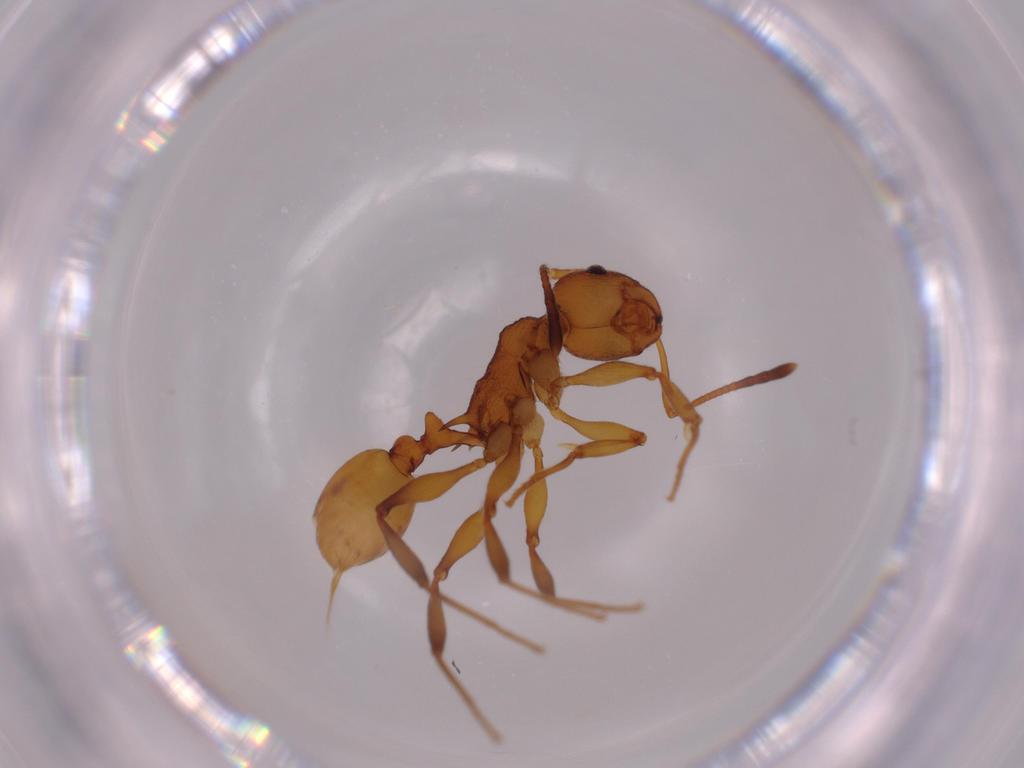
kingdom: Animalia
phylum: Arthropoda
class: Insecta
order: Hymenoptera
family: Formicidae
